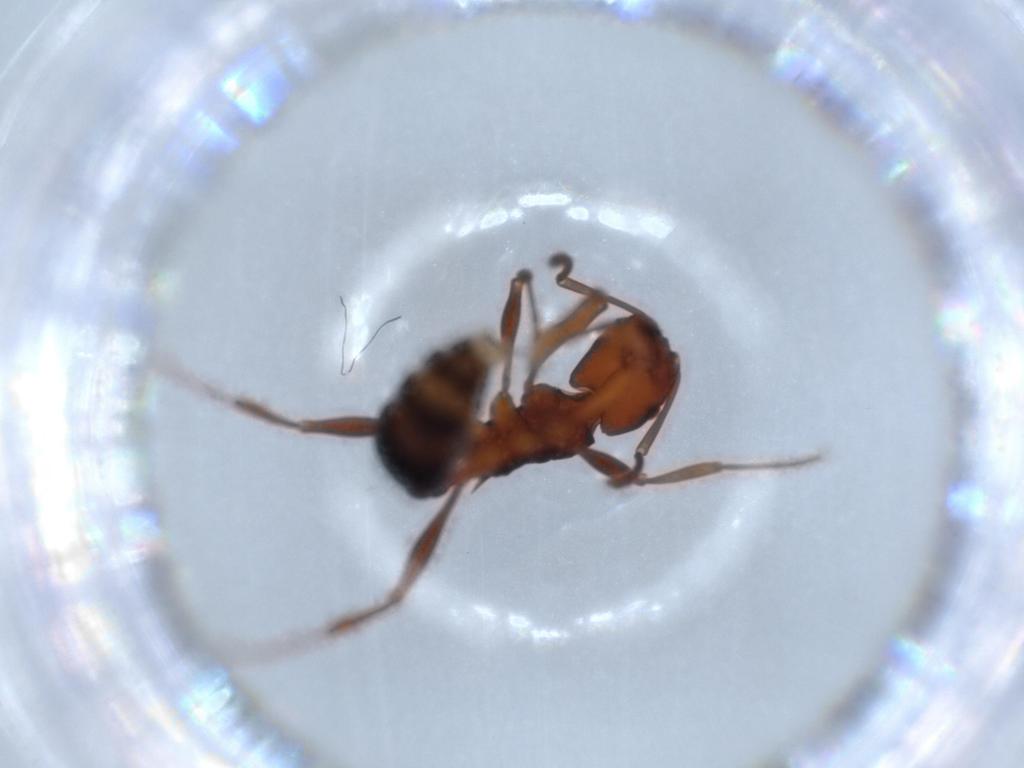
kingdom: Animalia
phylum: Arthropoda
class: Insecta
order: Hymenoptera
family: Formicidae
